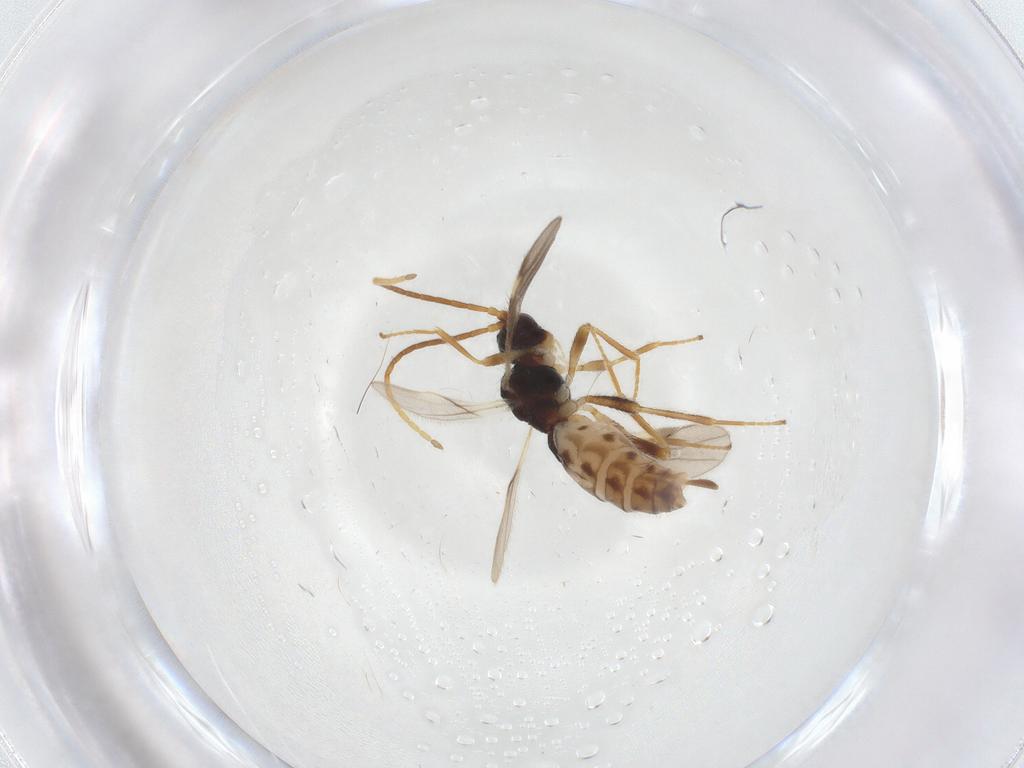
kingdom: Animalia
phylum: Arthropoda
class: Insecta
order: Hymenoptera
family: Braconidae
